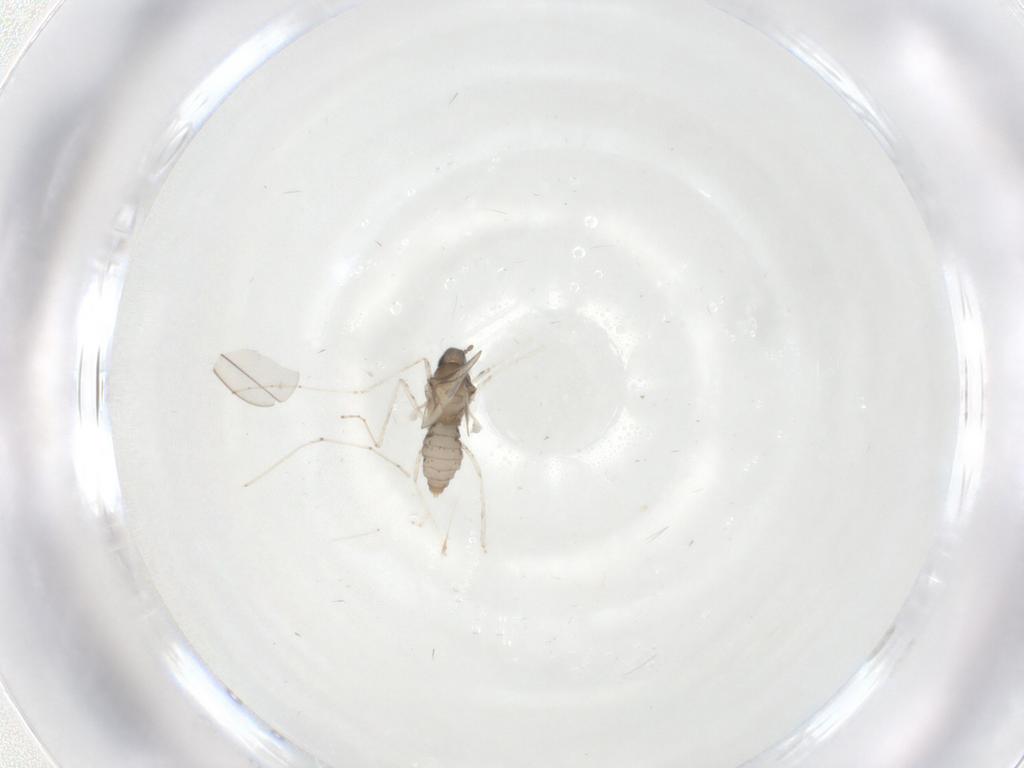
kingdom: Animalia
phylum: Arthropoda
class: Insecta
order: Diptera
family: Cecidomyiidae
